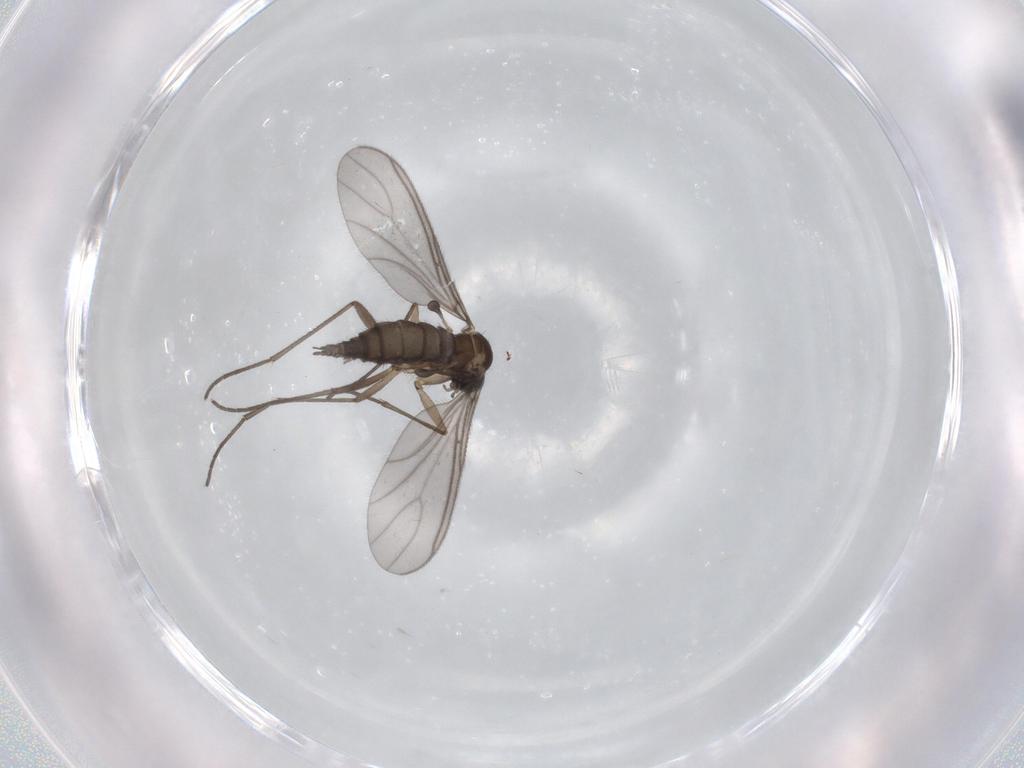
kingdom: Animalia
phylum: Arthropoda
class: Insecta
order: Diptera
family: Sciaridae
